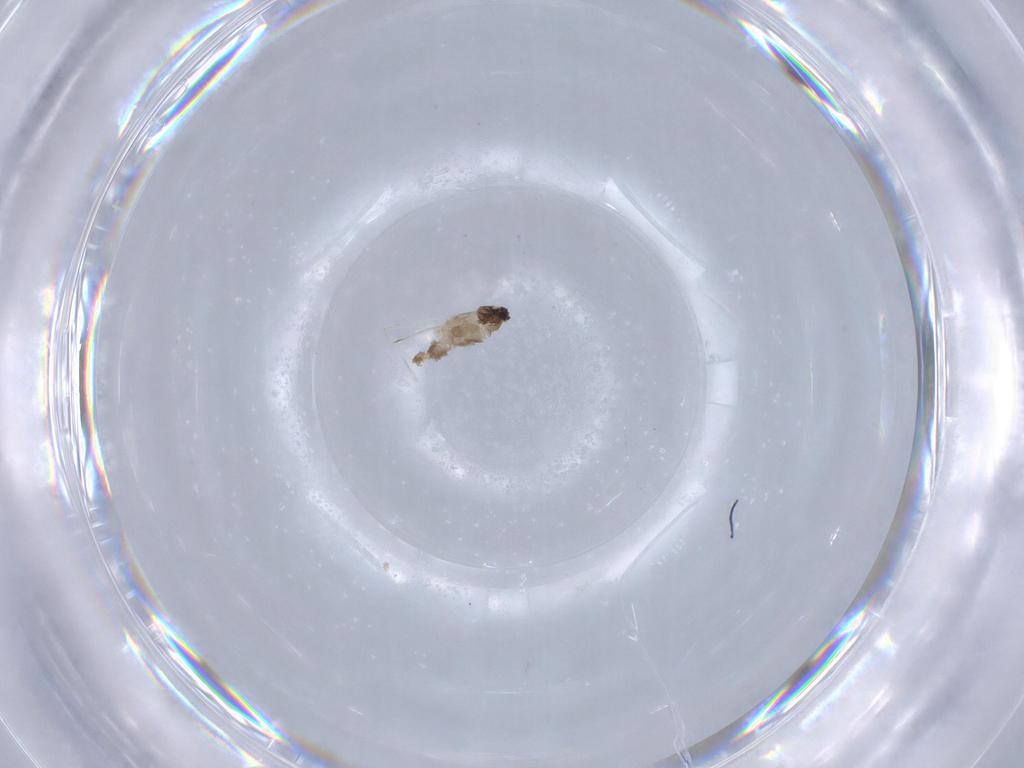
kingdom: Animalia
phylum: Arthropoda
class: Insecta
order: Diptera
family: Cecidomyiidae
